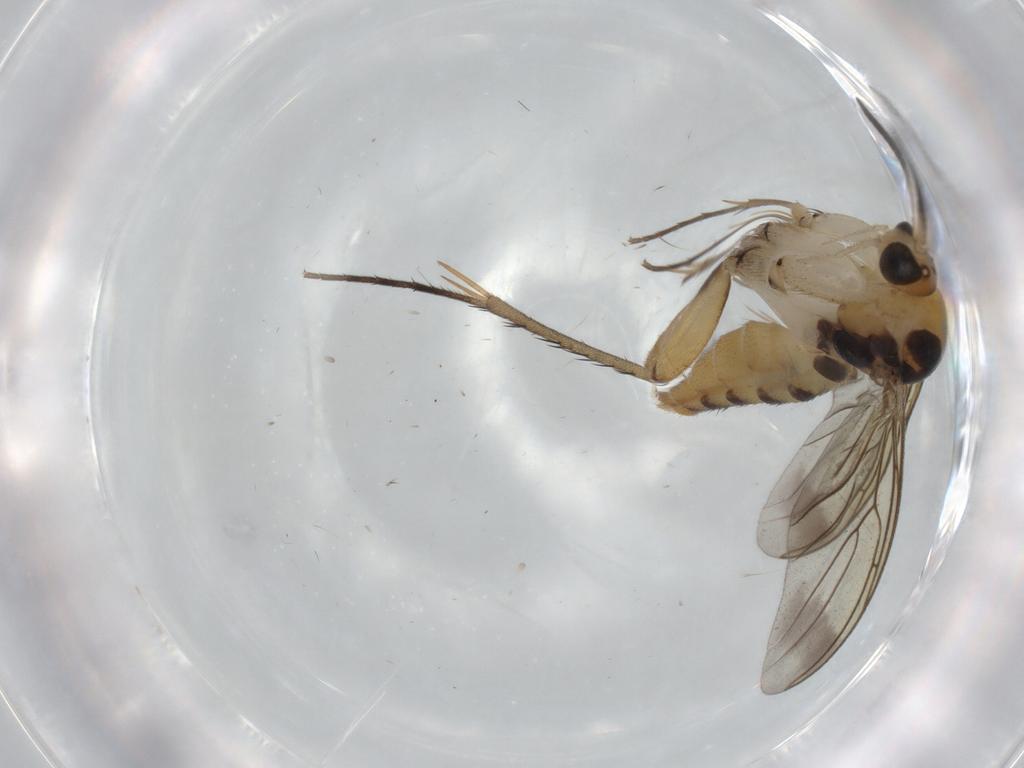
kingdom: Animalia
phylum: Arthropoda
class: Insecta
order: Diptera
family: Mycetophilidae
